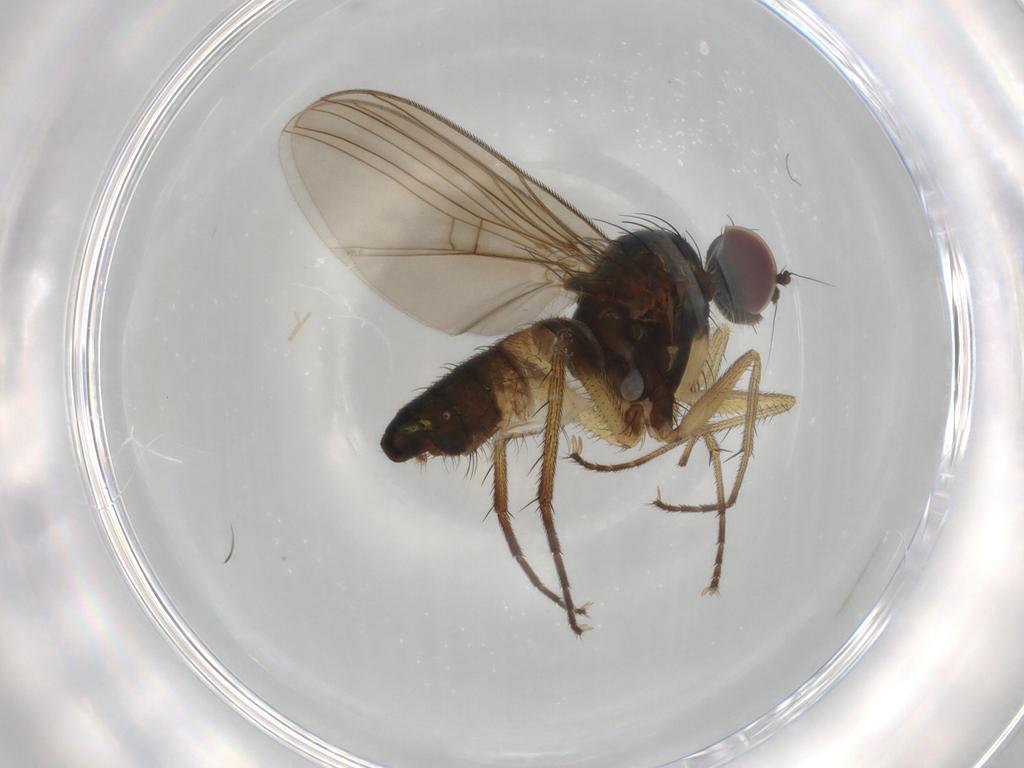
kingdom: Animalia
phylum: Arthropoda
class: Insecta
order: Diptera
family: Dolichopodidae
